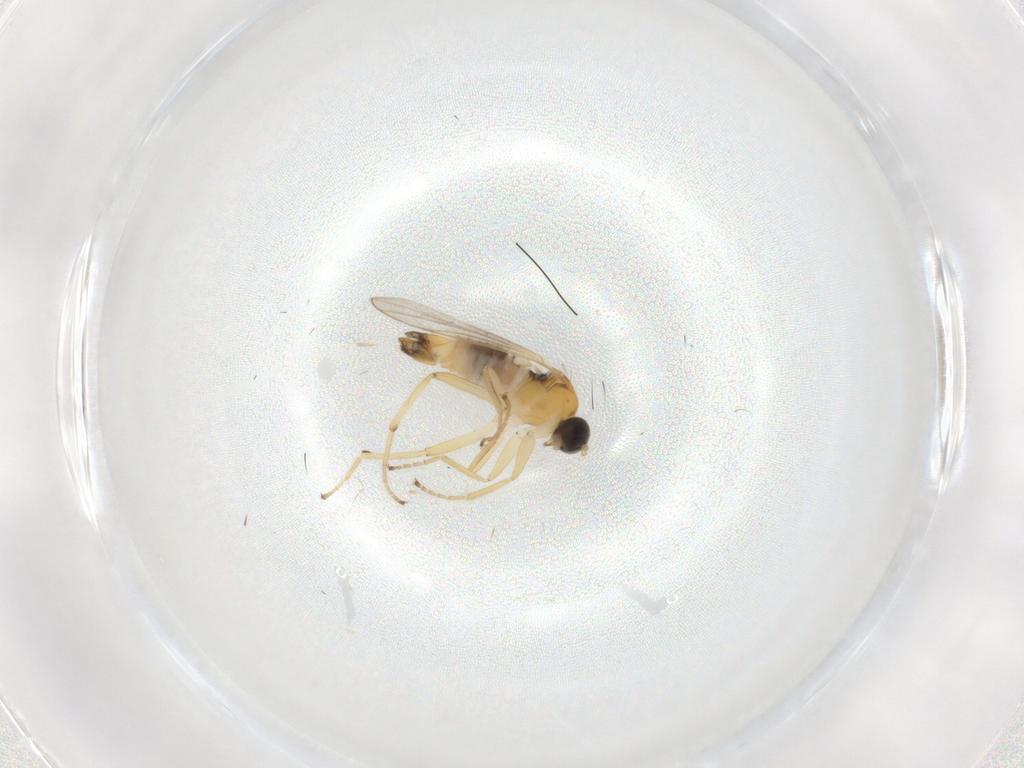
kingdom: Animalia
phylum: Arthropoda
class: Insecta
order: Diptera
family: Hybotidae
